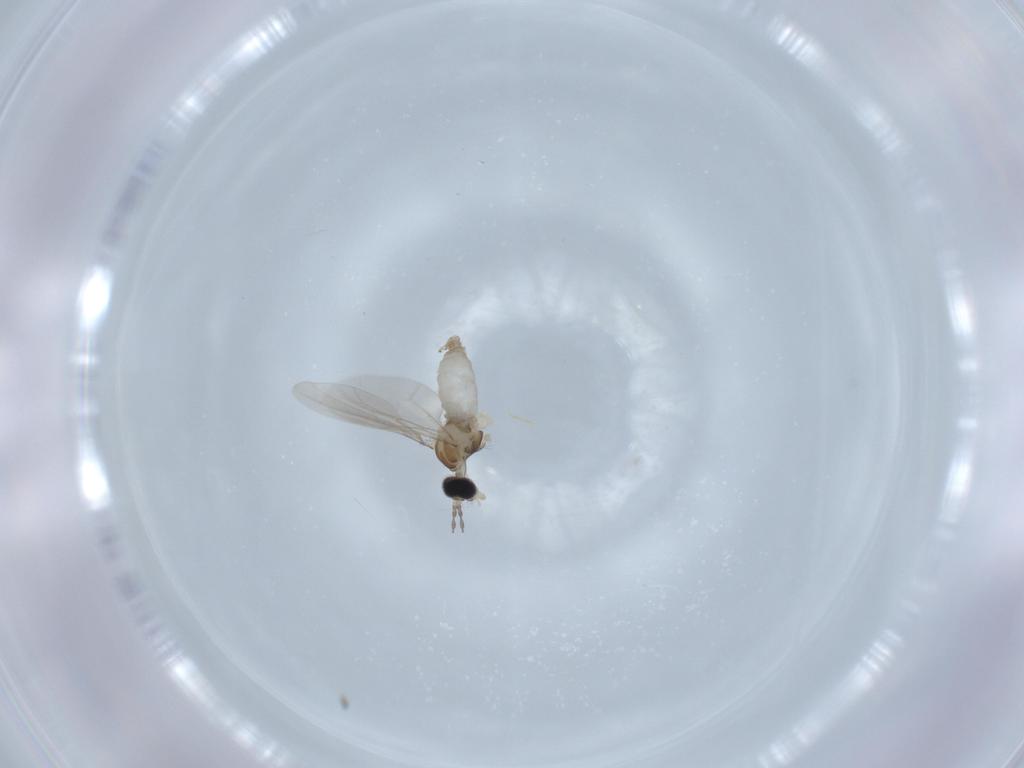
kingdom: Animalia
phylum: Arthropoda
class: Insecta
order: Diptera
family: Cecidomyiidae
